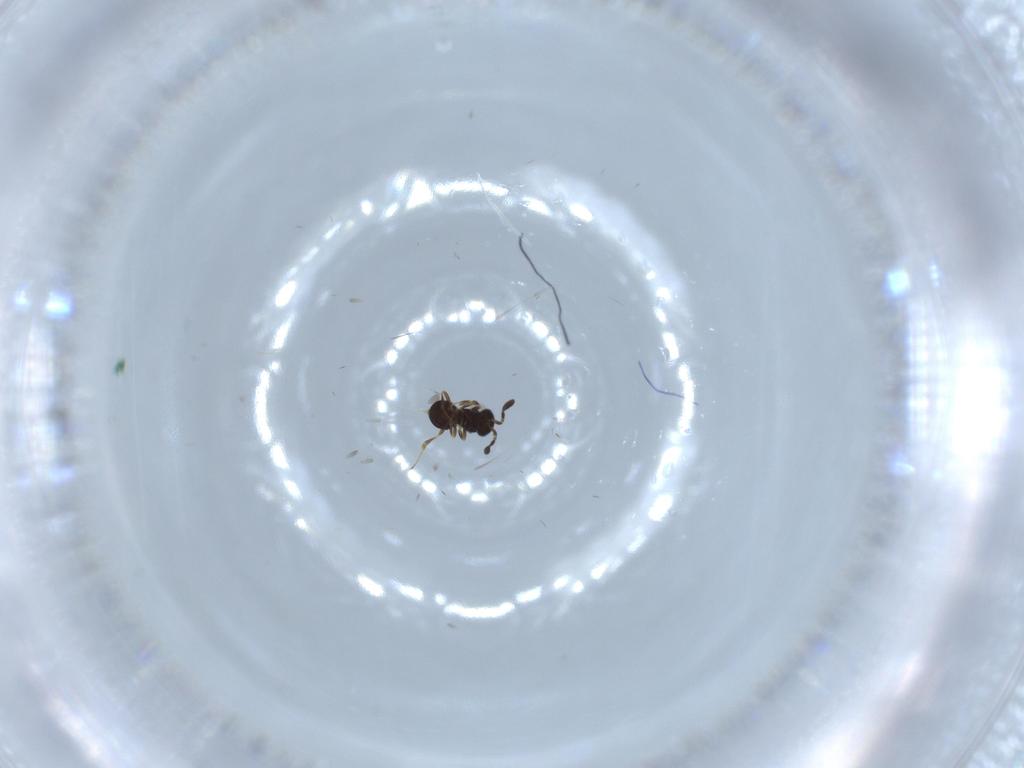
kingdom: Animalia
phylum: Arthropoda
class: Insecta
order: Hymenoptera
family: Scelionidae
